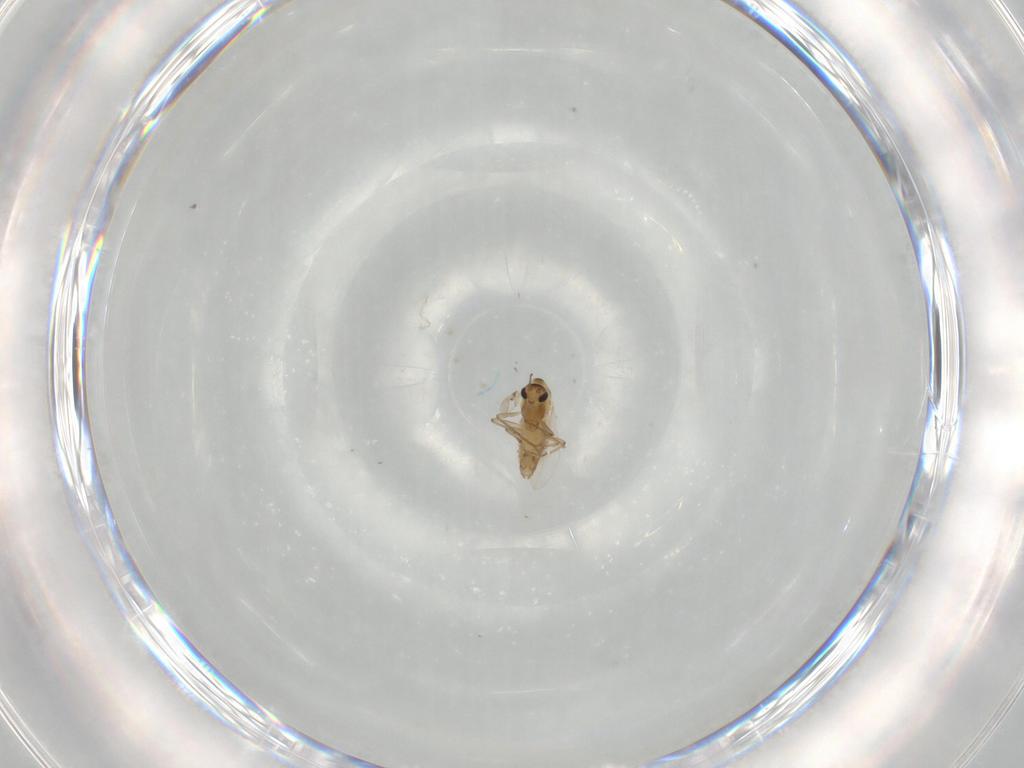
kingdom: Animalia
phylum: Arthropoda
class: Insecta
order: Diptera
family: Chironomidae
